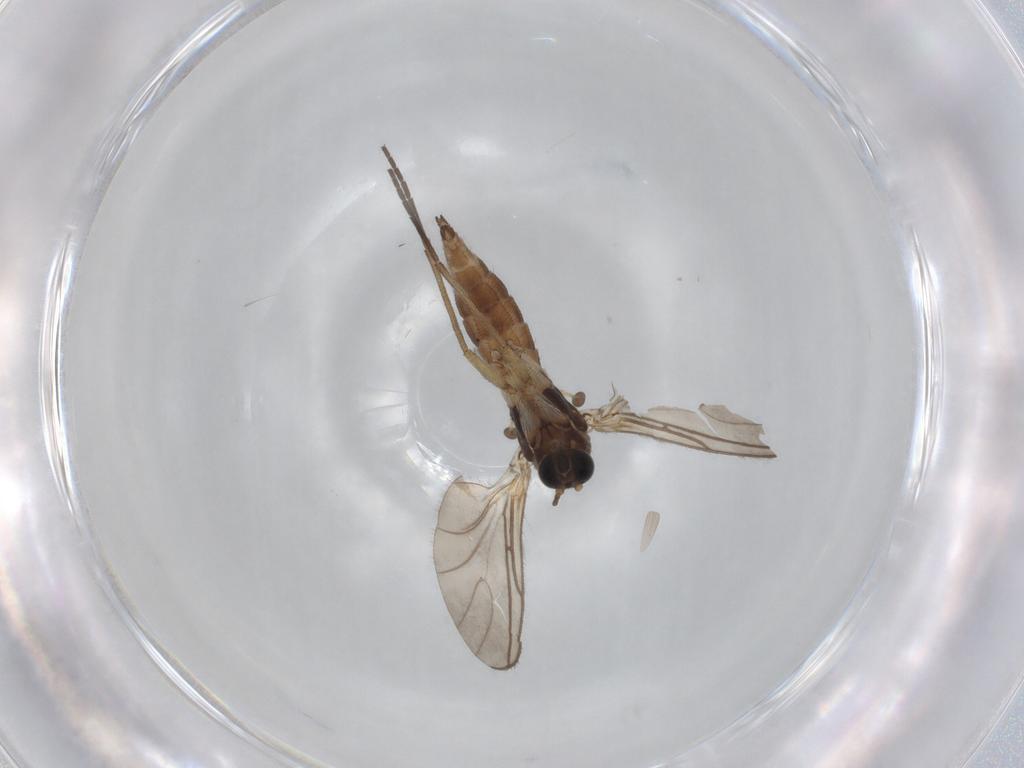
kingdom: Animalia
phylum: Arthropoda
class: Insecta
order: Diptera
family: Sciaridae
